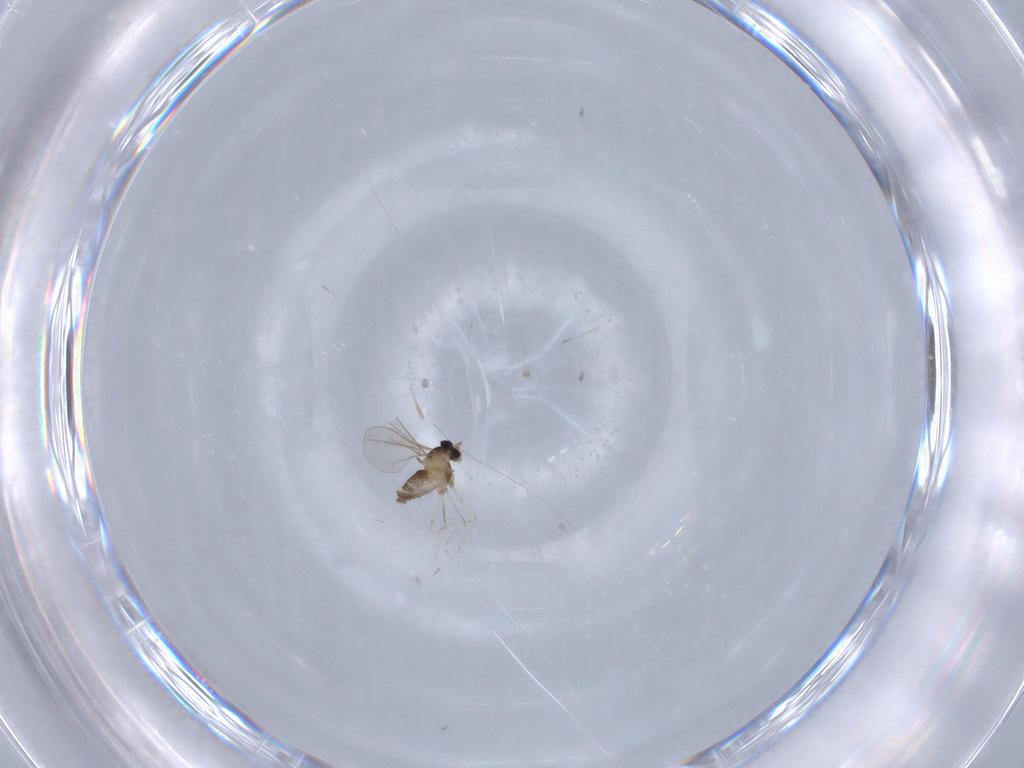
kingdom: Animalia
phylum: Arthropoda
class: Insecta
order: Diptera
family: Cecidomyiidae
